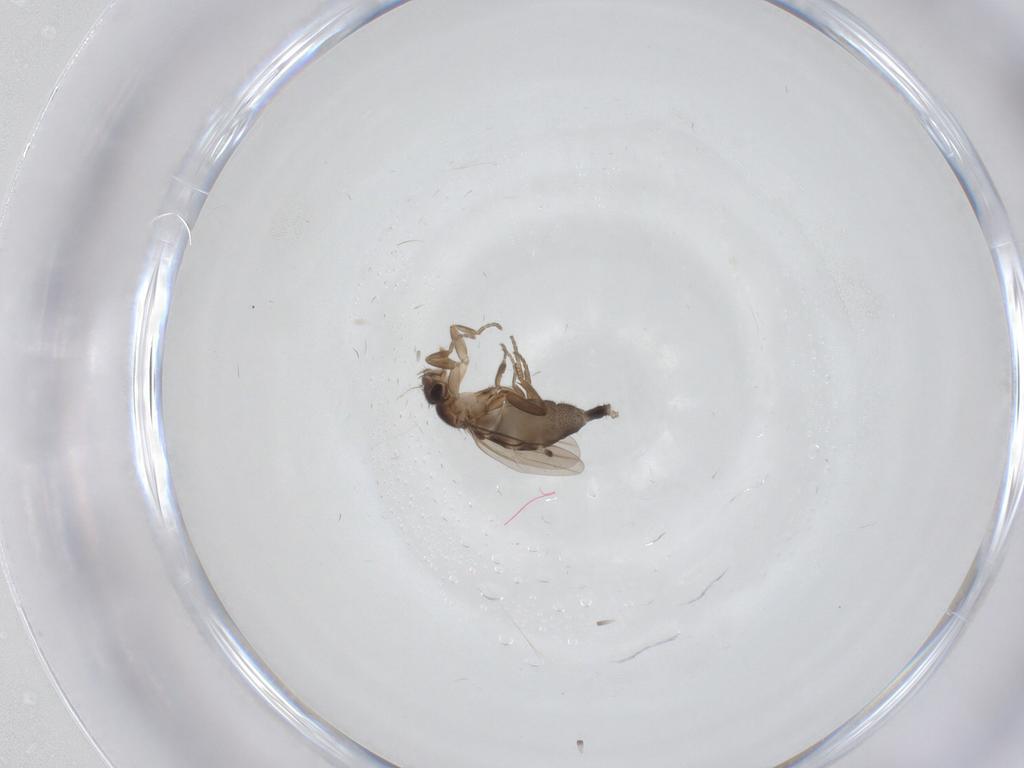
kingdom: Animalia
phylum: Arthropoda
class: Insecta
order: Diptera
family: Psychodidae
